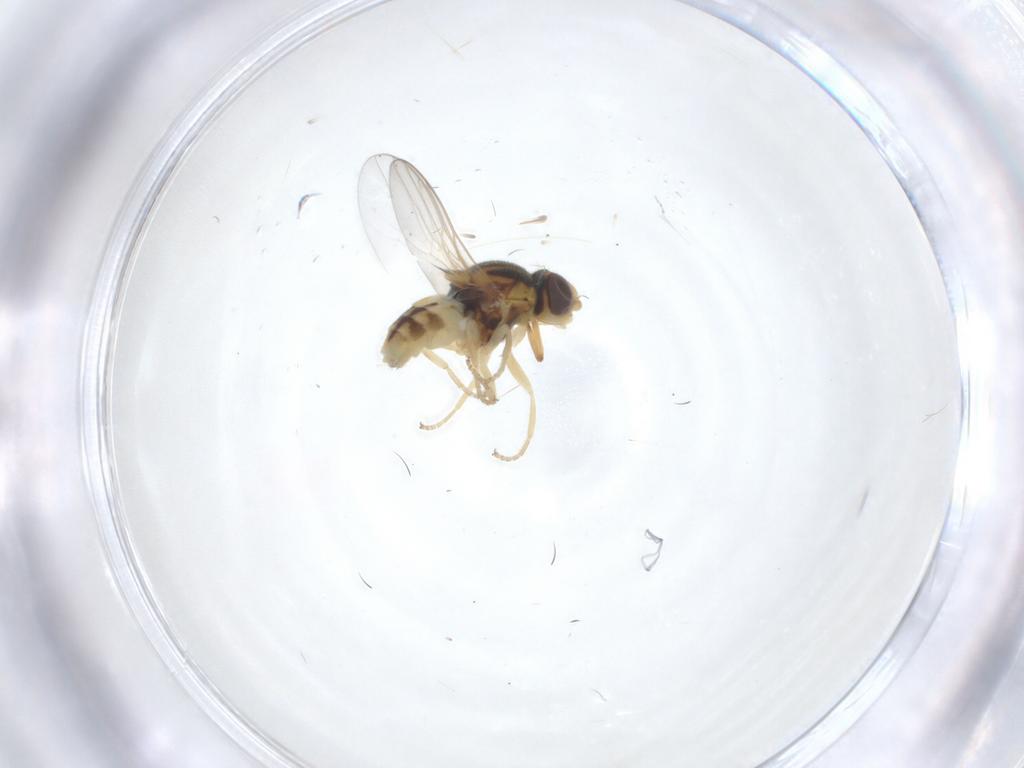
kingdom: Animalia
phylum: Arthropoda
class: Insecta
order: Diptera
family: Chloropidae
